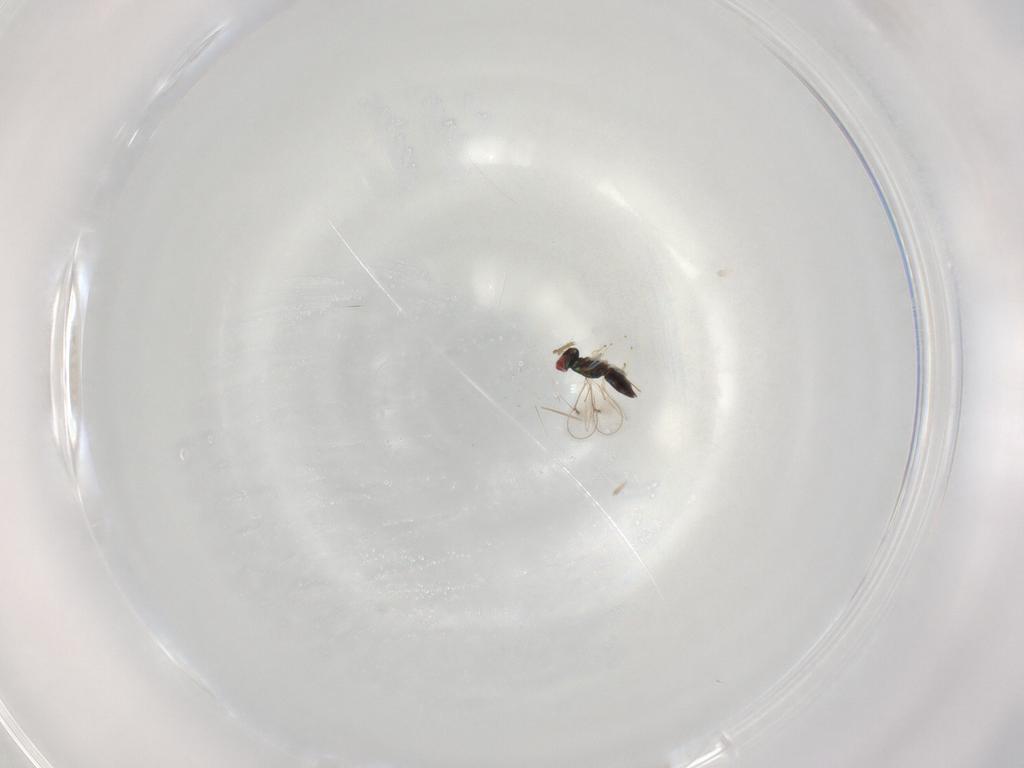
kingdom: Animalia
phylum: Arthropoda
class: Insecta
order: Hymenoptera
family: Eulophidae
